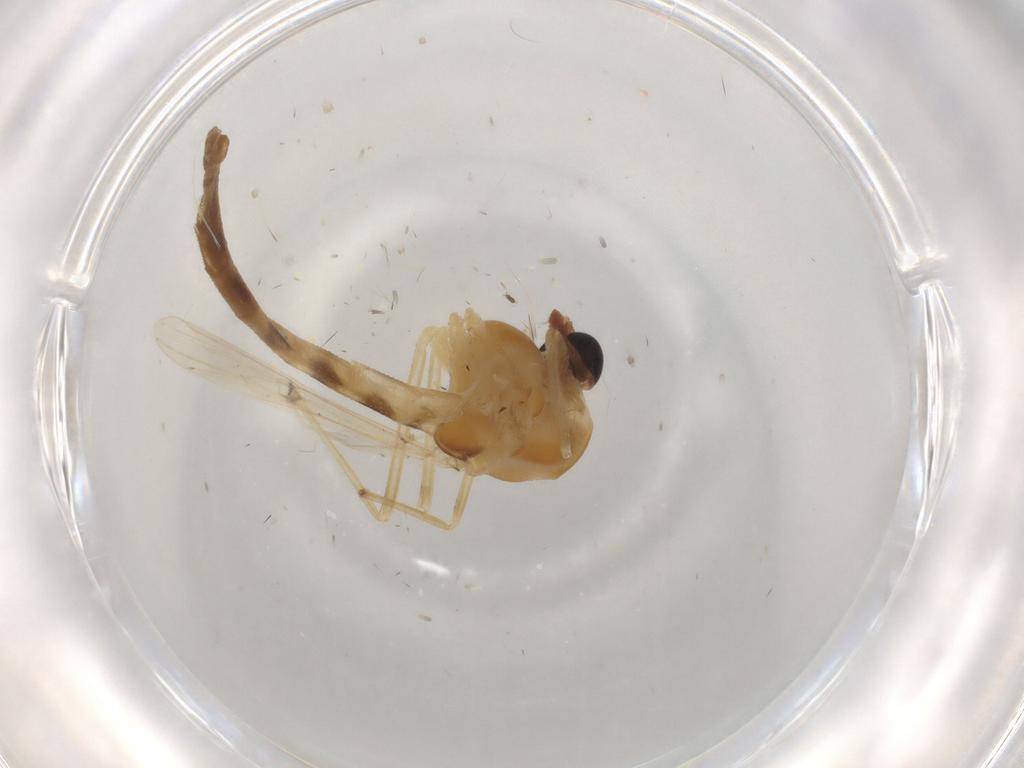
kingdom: Animalia
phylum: Arthropoda
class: Insecta
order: Diptera
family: Cecidomyiidae
